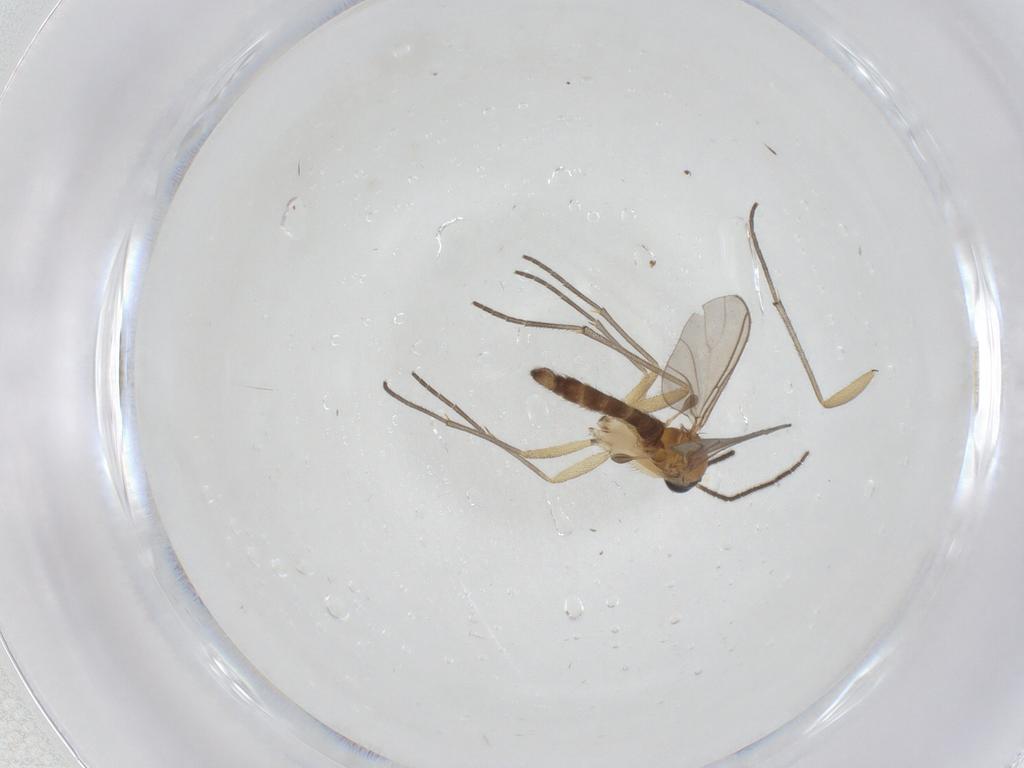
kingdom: Animalia
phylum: Arthropoda
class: Insecta
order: Diptera
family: Sciaridae
